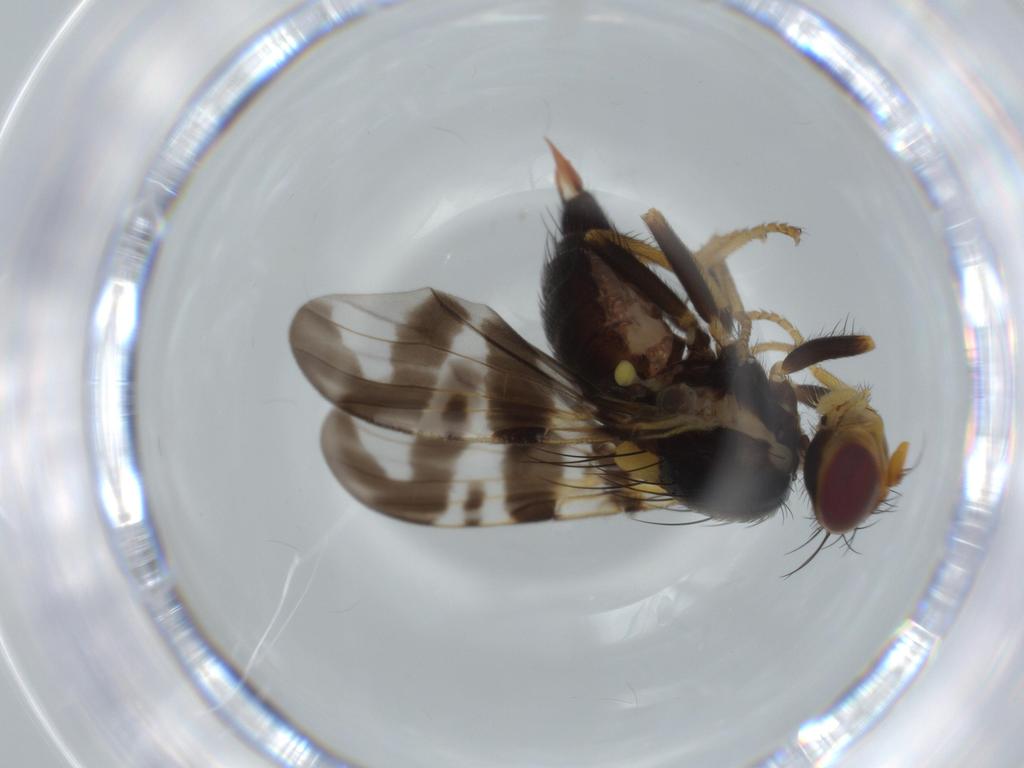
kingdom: Animalia
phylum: Arthropoda
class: Insecta
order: Diptera
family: Tephritidae
